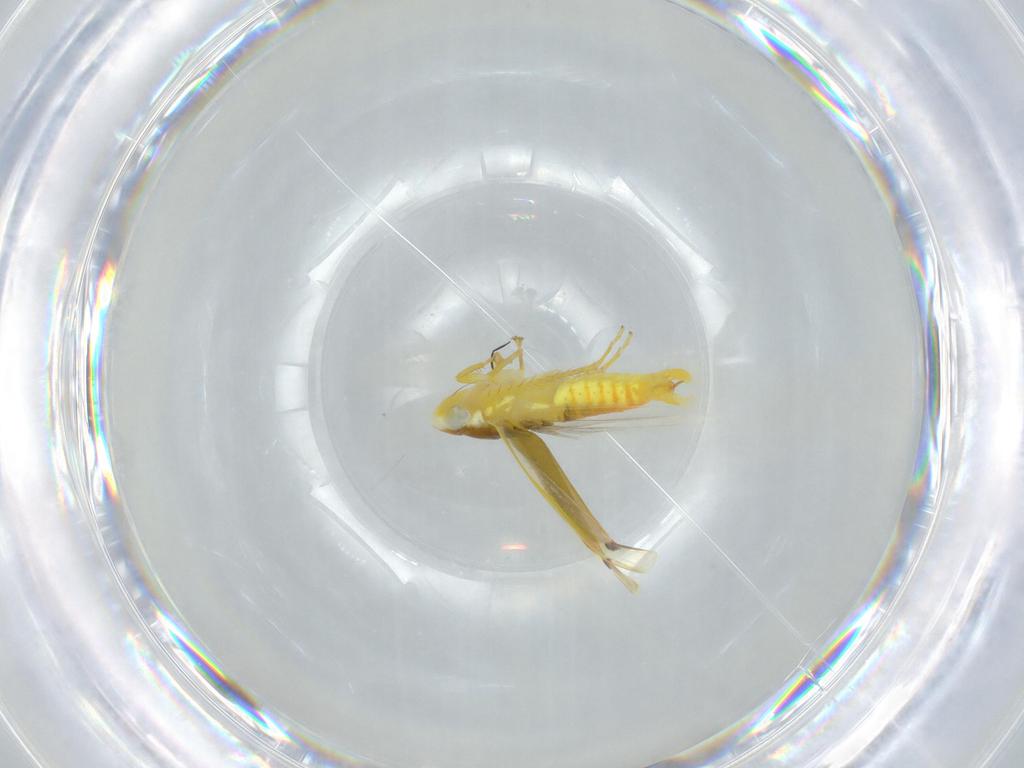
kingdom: Animalia
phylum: Arthropoda
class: Insecta
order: Hemiptera
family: Cicadellidae
